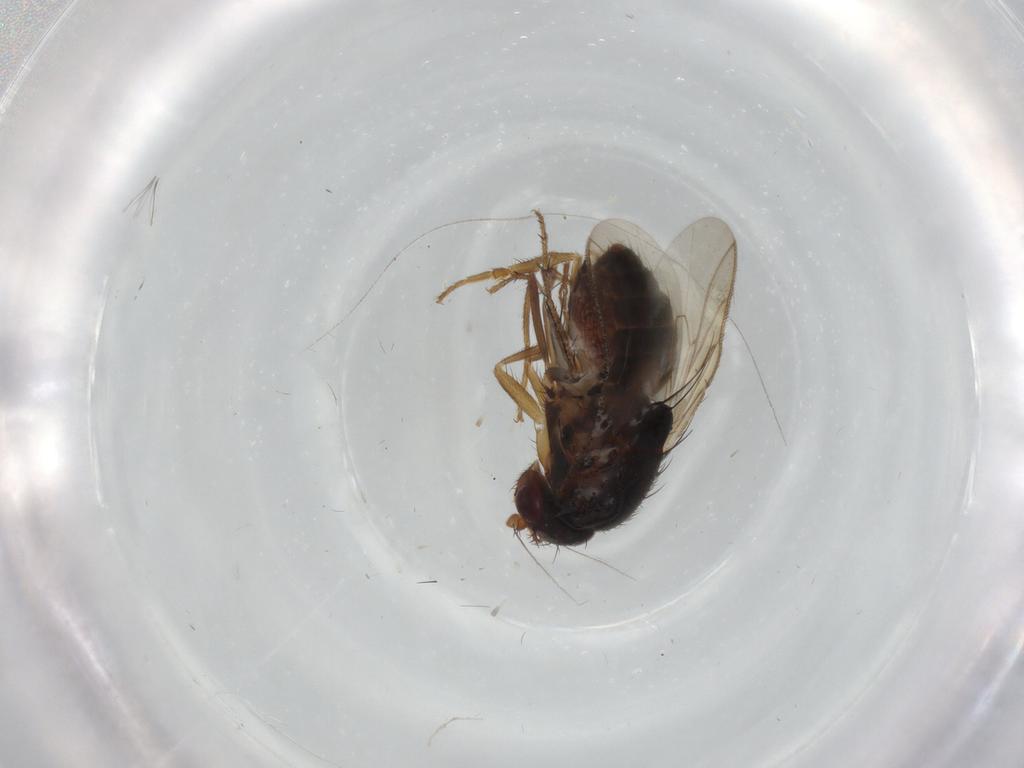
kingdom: Animalia
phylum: Arthropoda
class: Insecta
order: Diptera
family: Sphaeroceridae
